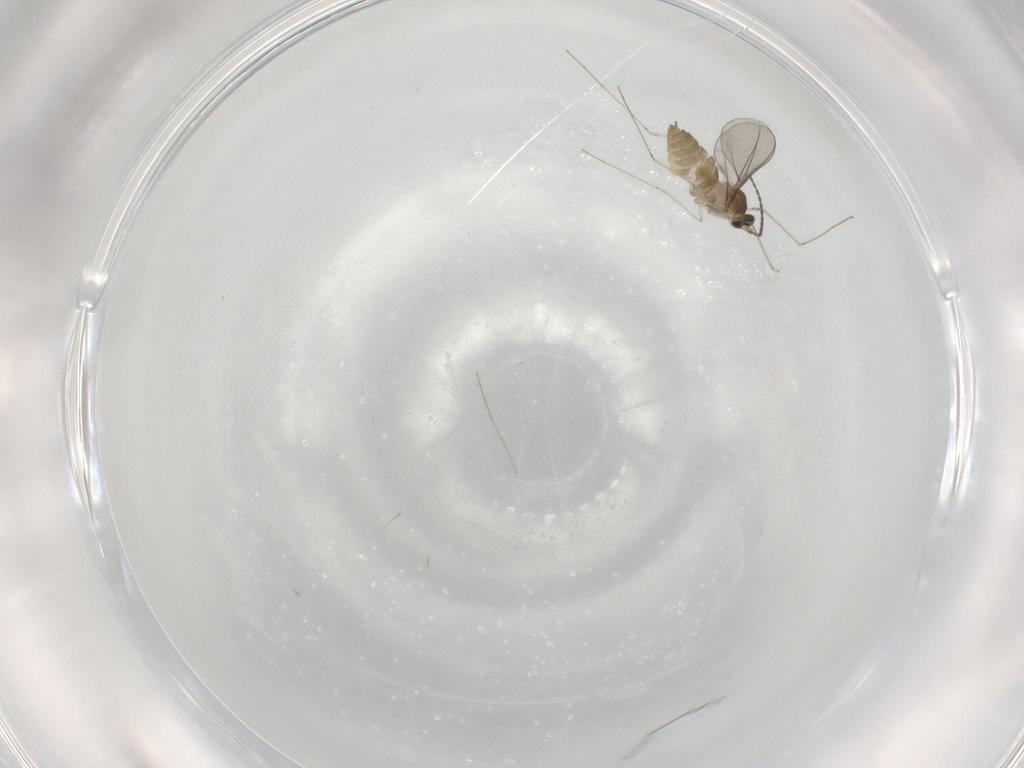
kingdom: Animalia
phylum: Arthropoda
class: Insecta
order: Diptera
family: Cecidomyiidae
